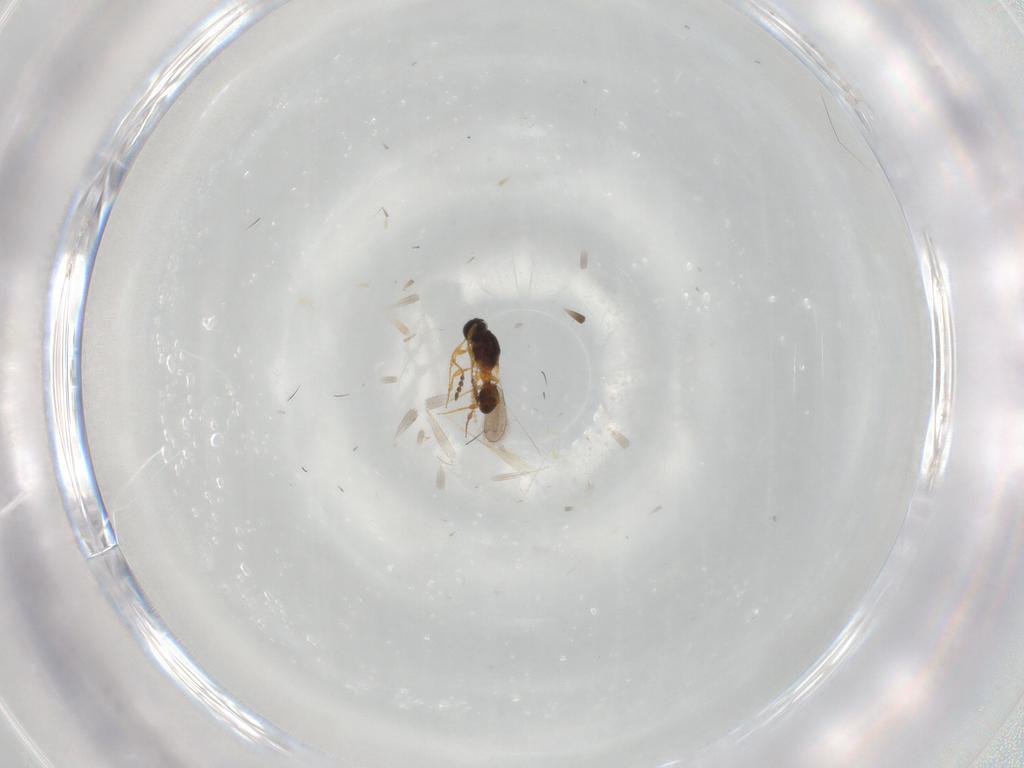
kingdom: Animalia
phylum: Arthropoda
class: Insecta
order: Hymenoptera
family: Platygastridae
